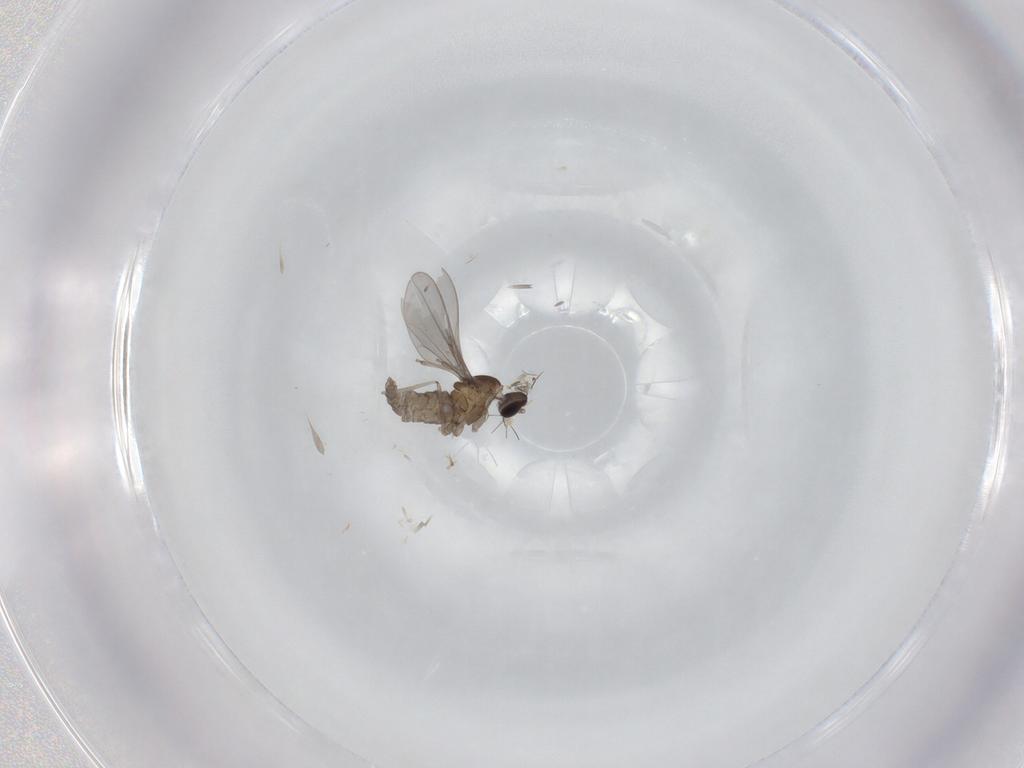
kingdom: Animalia
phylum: Arthropoda
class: Insecta
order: Diptera
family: Cecidomyiidae
